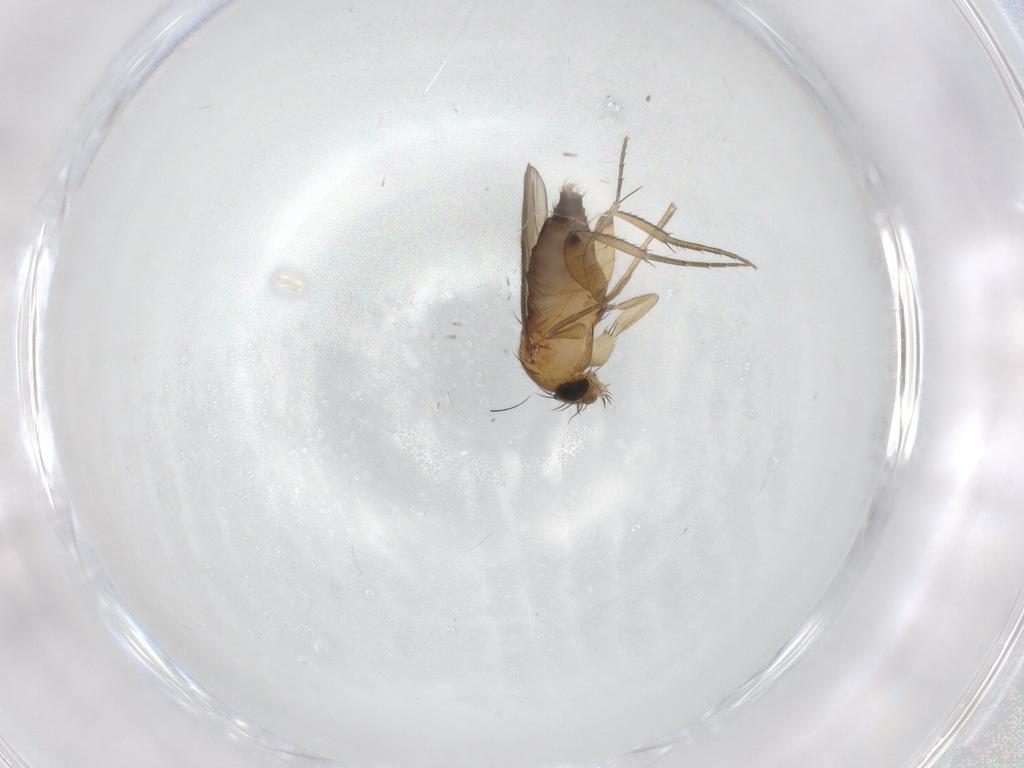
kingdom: Animalia
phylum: Arthropoda
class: Insecta
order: Diptera
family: Phoridae
